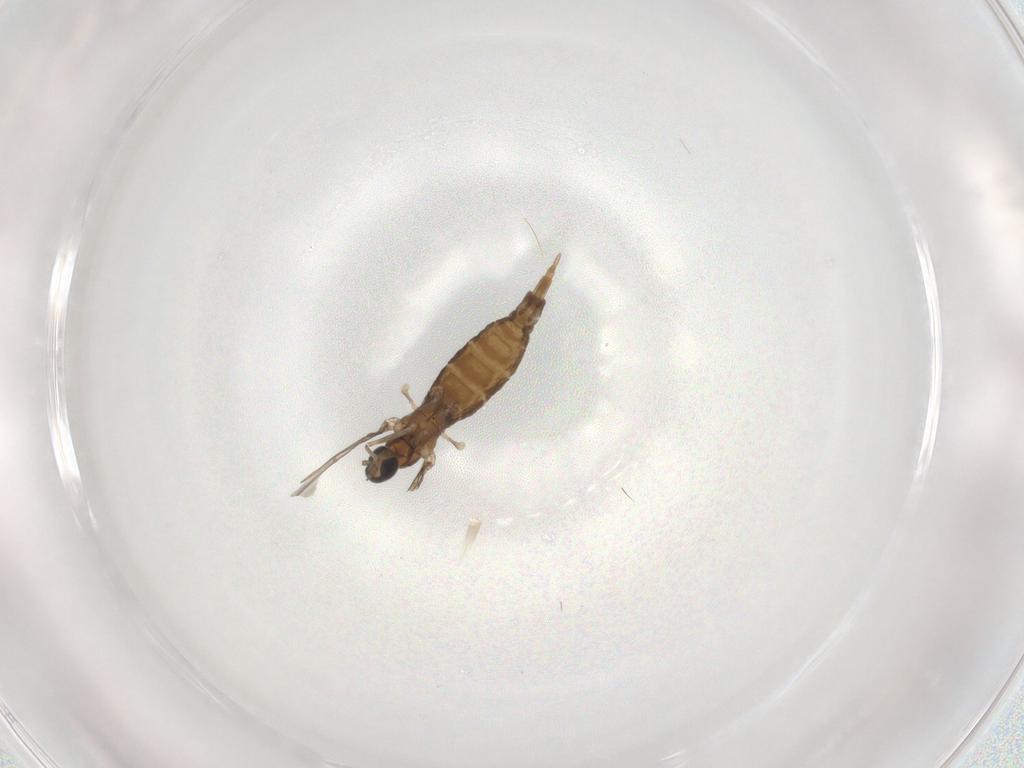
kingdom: Animalia
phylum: Arthropoda
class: Insecta
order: Diptera
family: Cecidomyiidae
